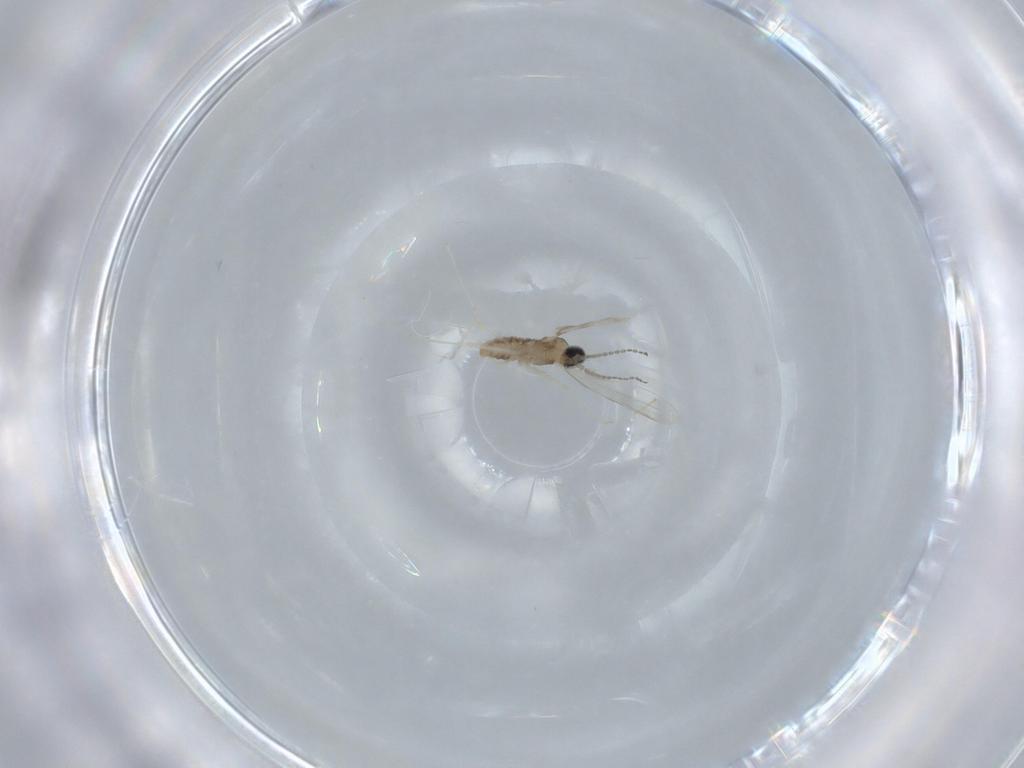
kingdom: Animalia
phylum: Arthropoda
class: Insecta
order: Diptera
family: Cecidomyiidae
